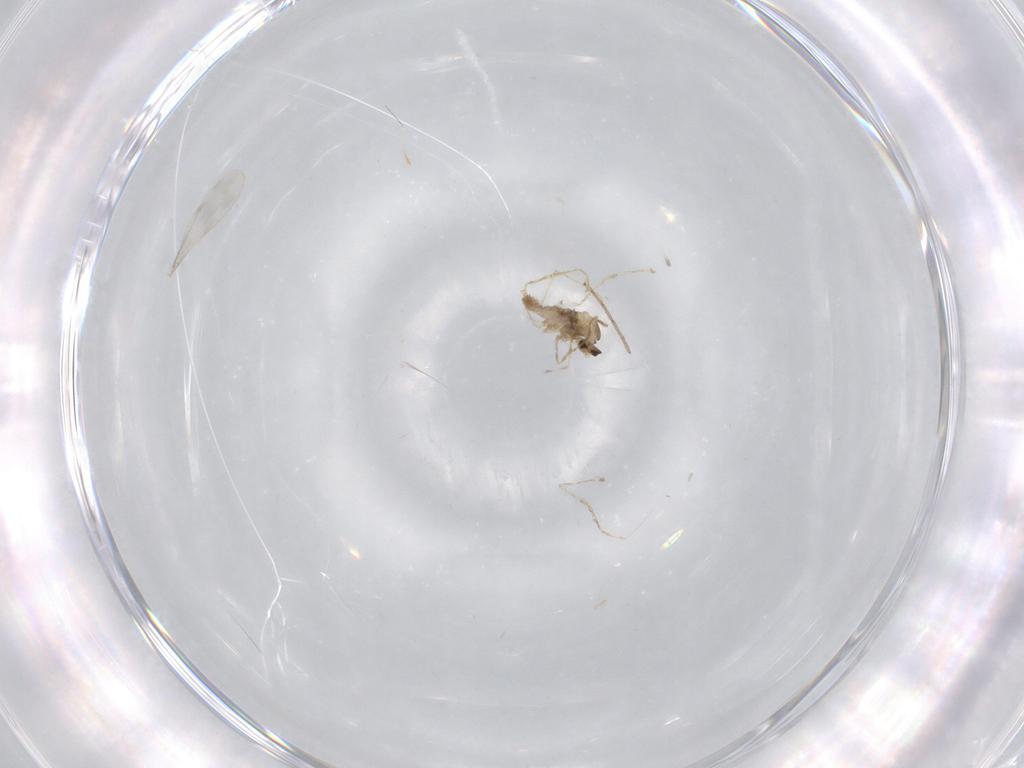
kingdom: Animalia
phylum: Arthropoda
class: Insecta
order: Diptera
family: Cecidomyiidae
